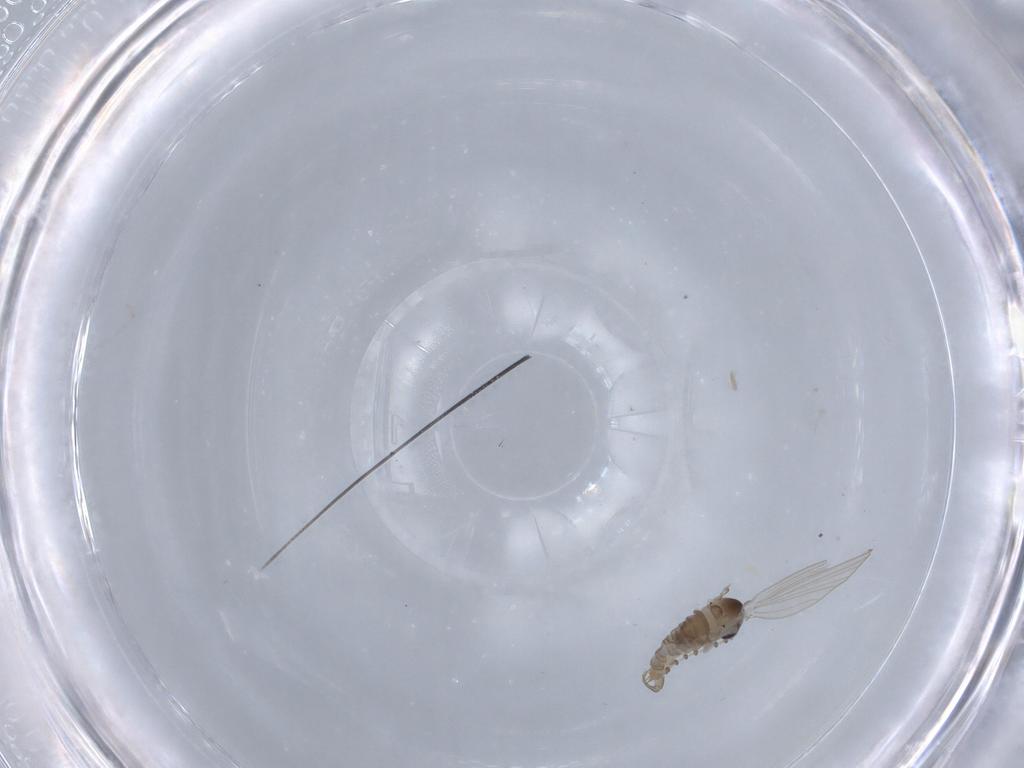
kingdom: Animalia
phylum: Arthropoda
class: Insecta
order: Diptera
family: Psychodidae
